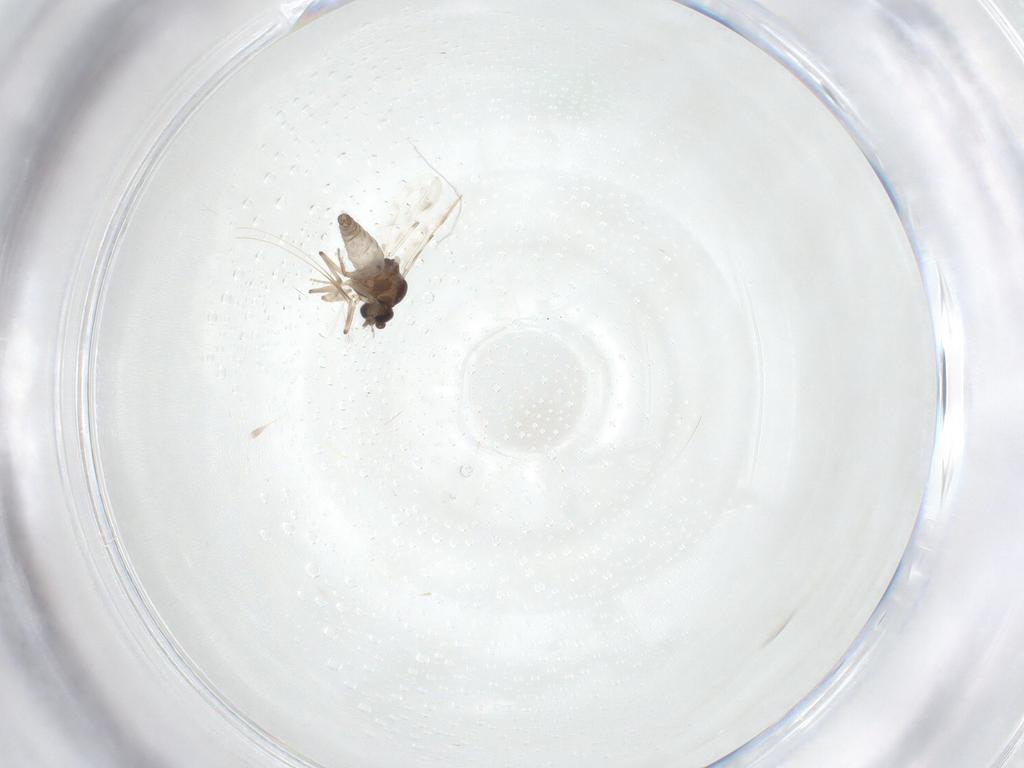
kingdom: Animalia
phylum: Arthropoda
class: Insecta
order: Diptera
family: Ceratopogonidae
